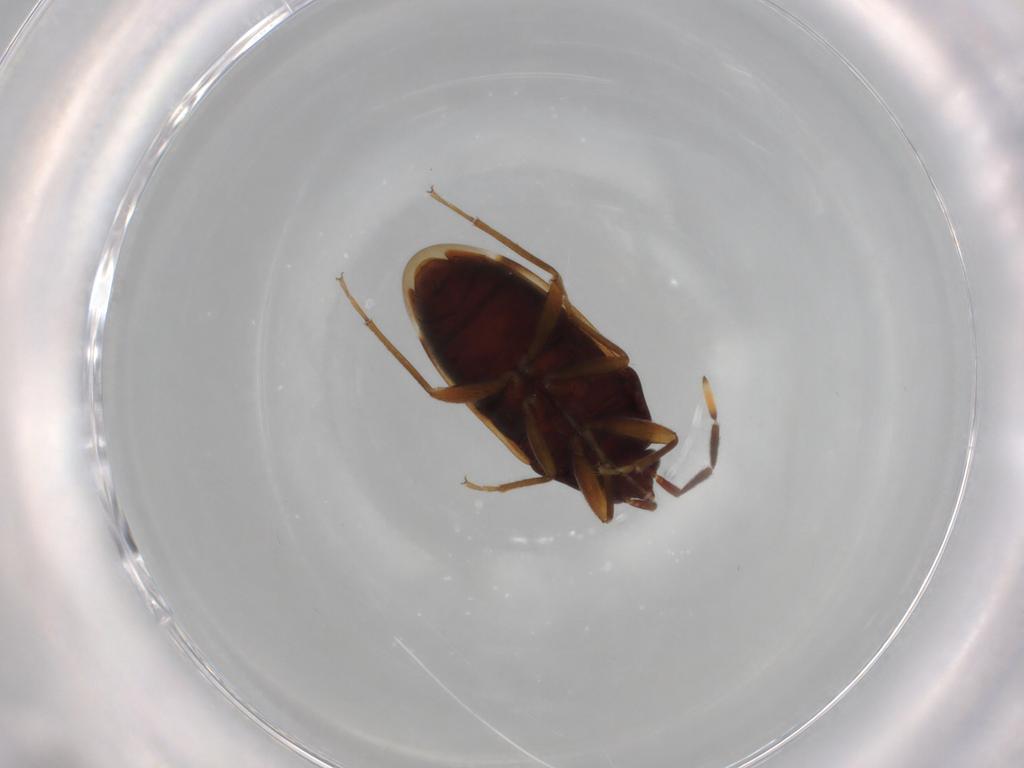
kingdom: Animalia
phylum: Arthropoda
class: Insecta
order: Hemiptera
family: Rhyparochromidae
